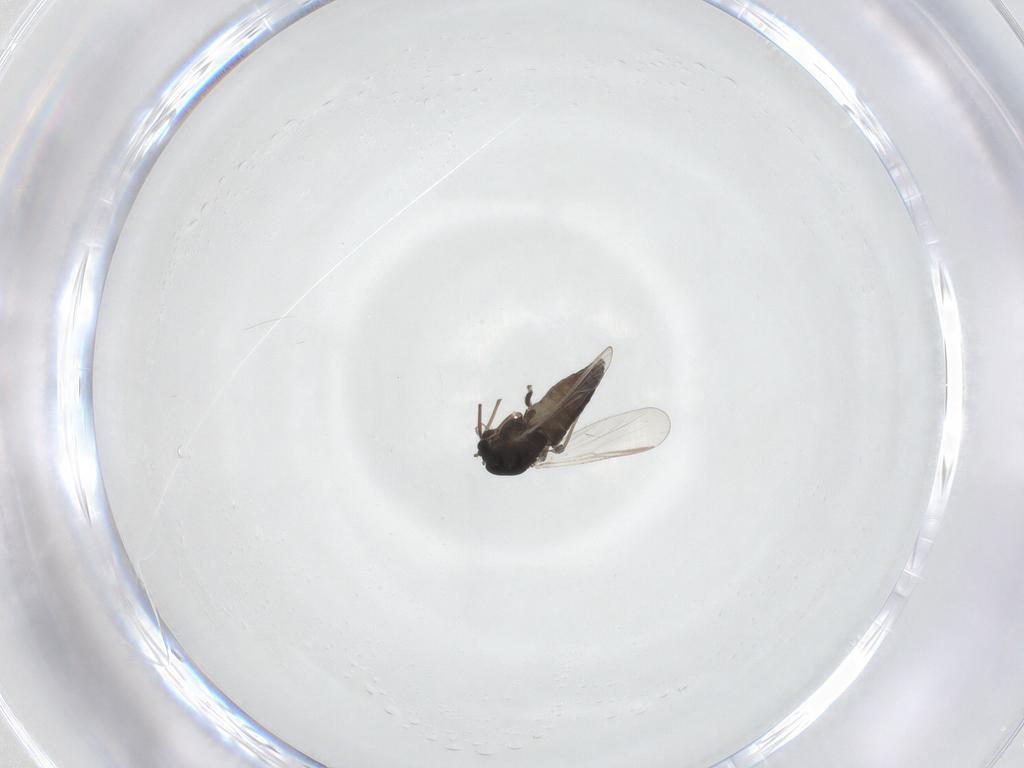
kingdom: Animalia
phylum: Arthropoda
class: Insecta
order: Diptera
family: Chironomidae
